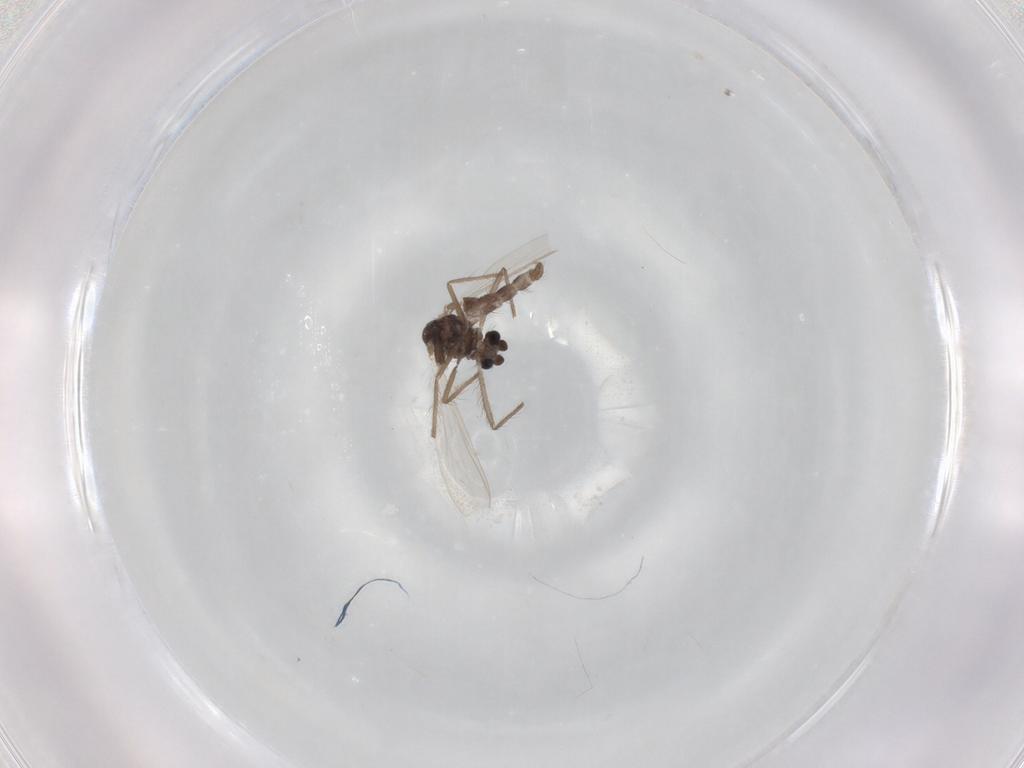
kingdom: Animalia
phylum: Arthropoda
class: Insecta
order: Diptera
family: Chironomidae
